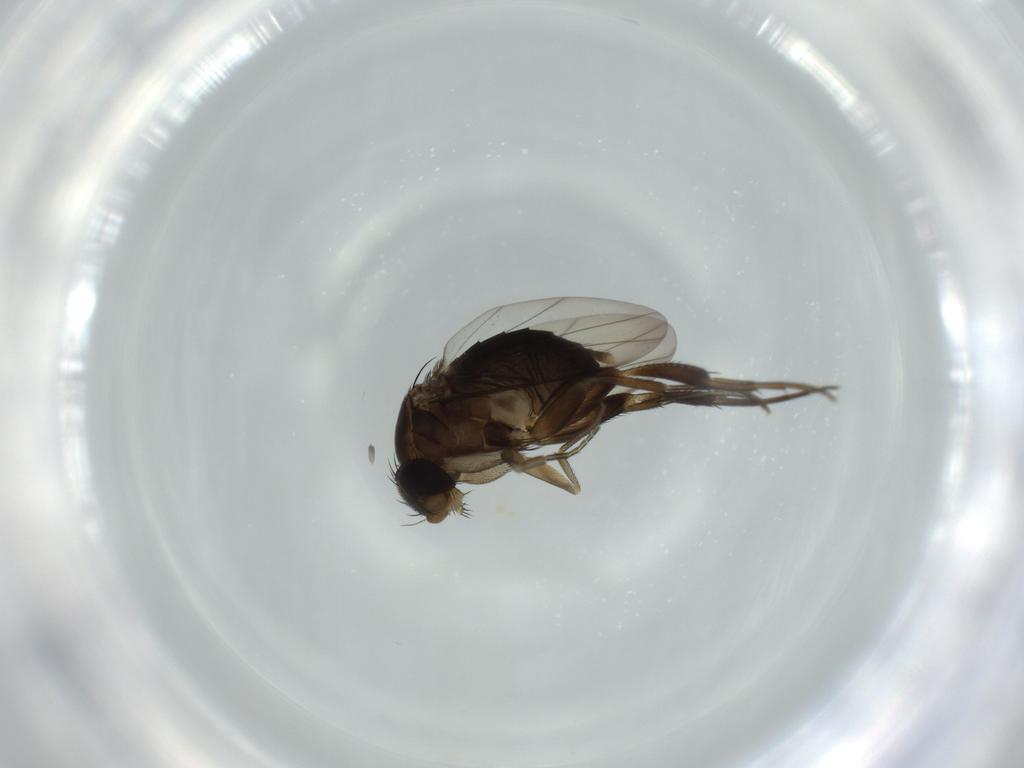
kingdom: Animalia
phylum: Arthropoda
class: Insecta
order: Diptera
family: Phoridae
